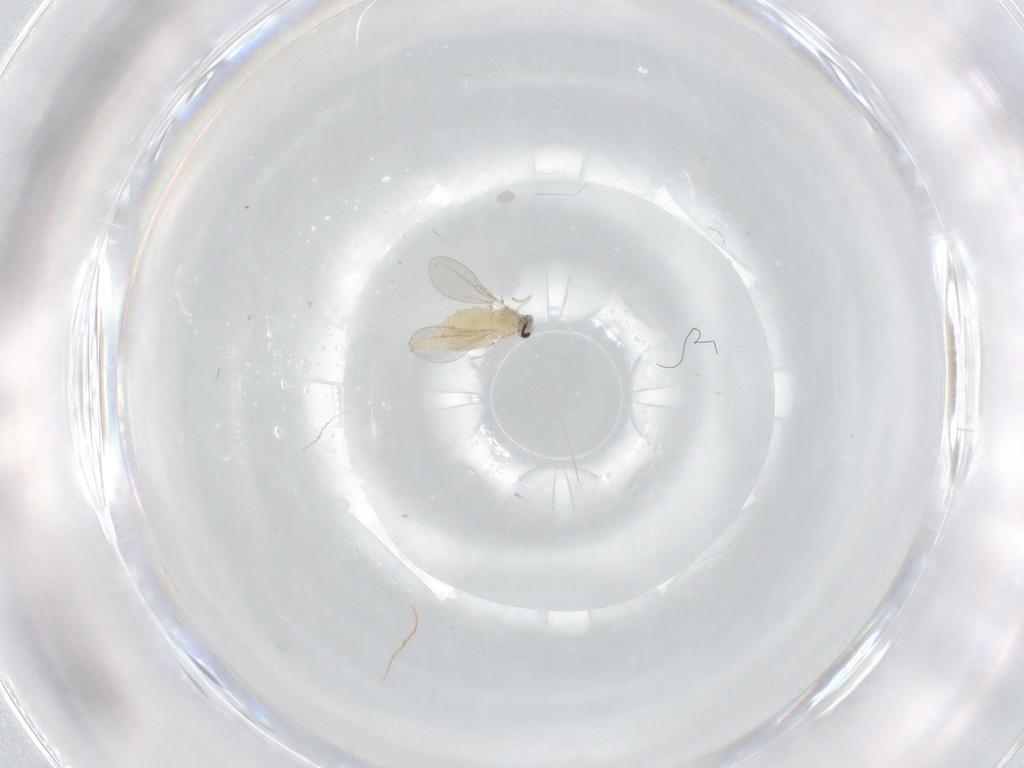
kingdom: Animalia
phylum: Arthropoda
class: Insecta
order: Diptera
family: Cecidomyiidae
